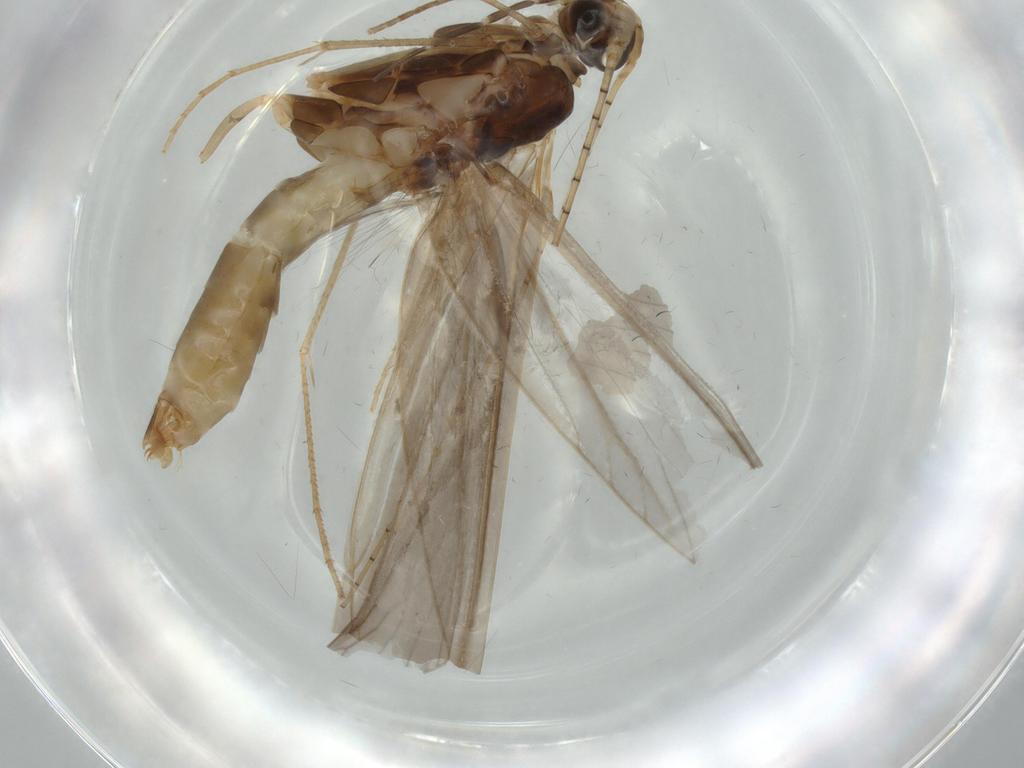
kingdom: Animalia
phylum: Arthropoda
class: Insecta
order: Trichoptera
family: Leptoceridae
